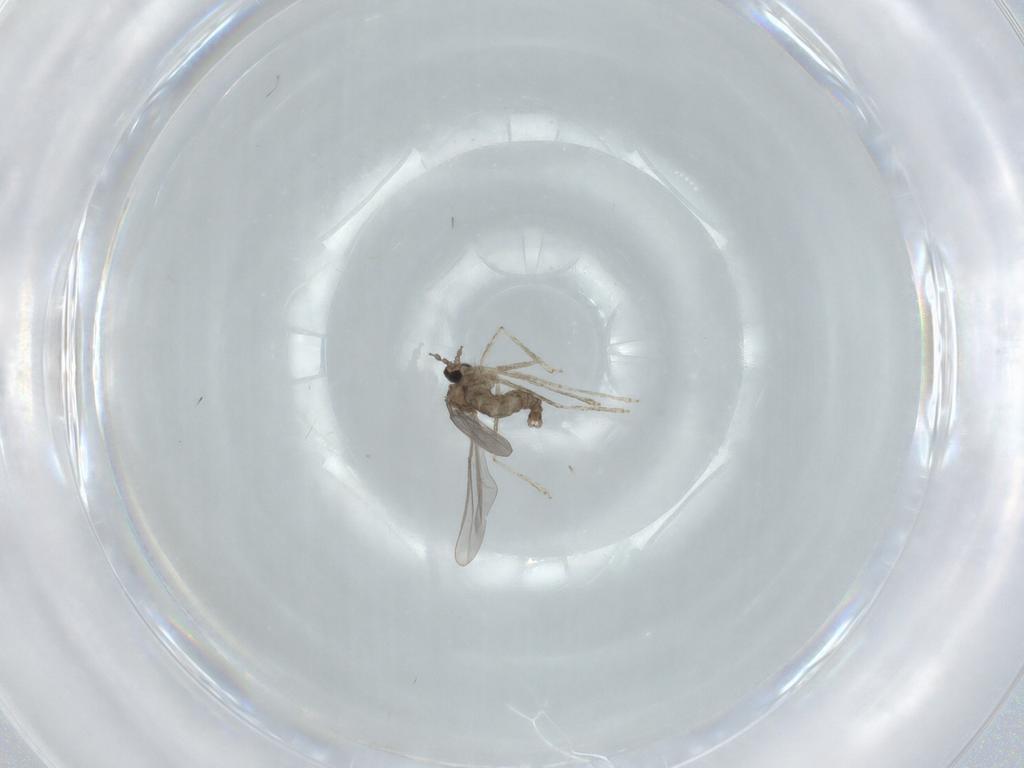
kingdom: Animalia
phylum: Arthropoda
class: Insecta
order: Diptera
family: Cecidomyiidae
